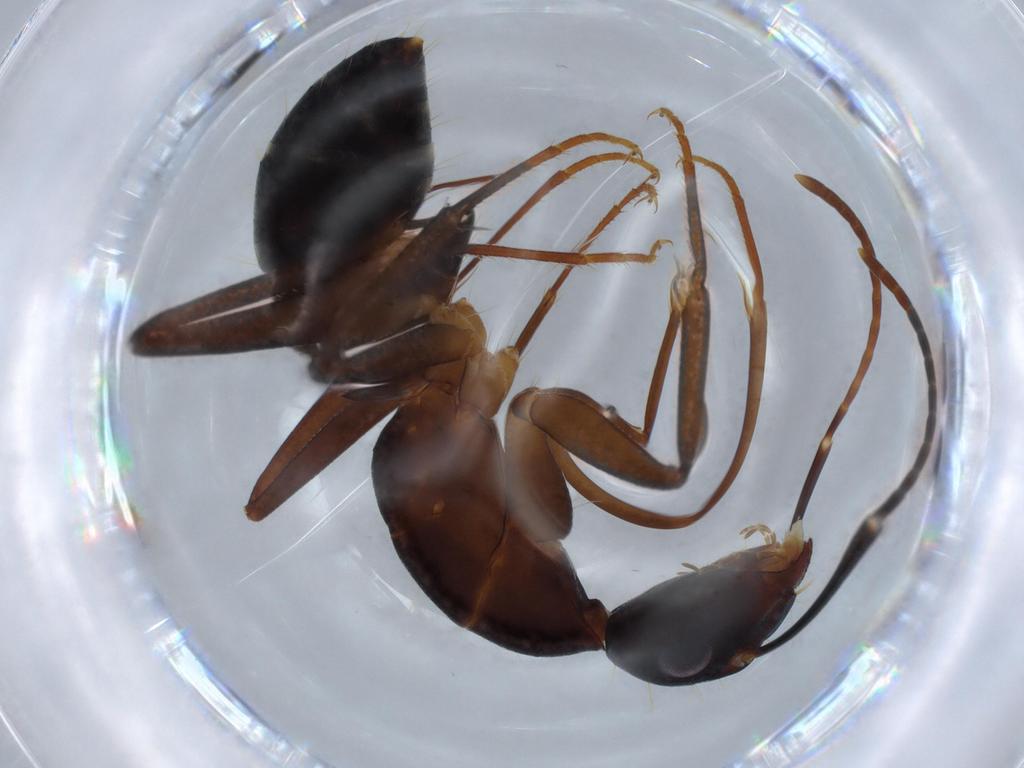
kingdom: Animalia
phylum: Arthropoda
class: Insecta
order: Hymenoptera
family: Formicidae
